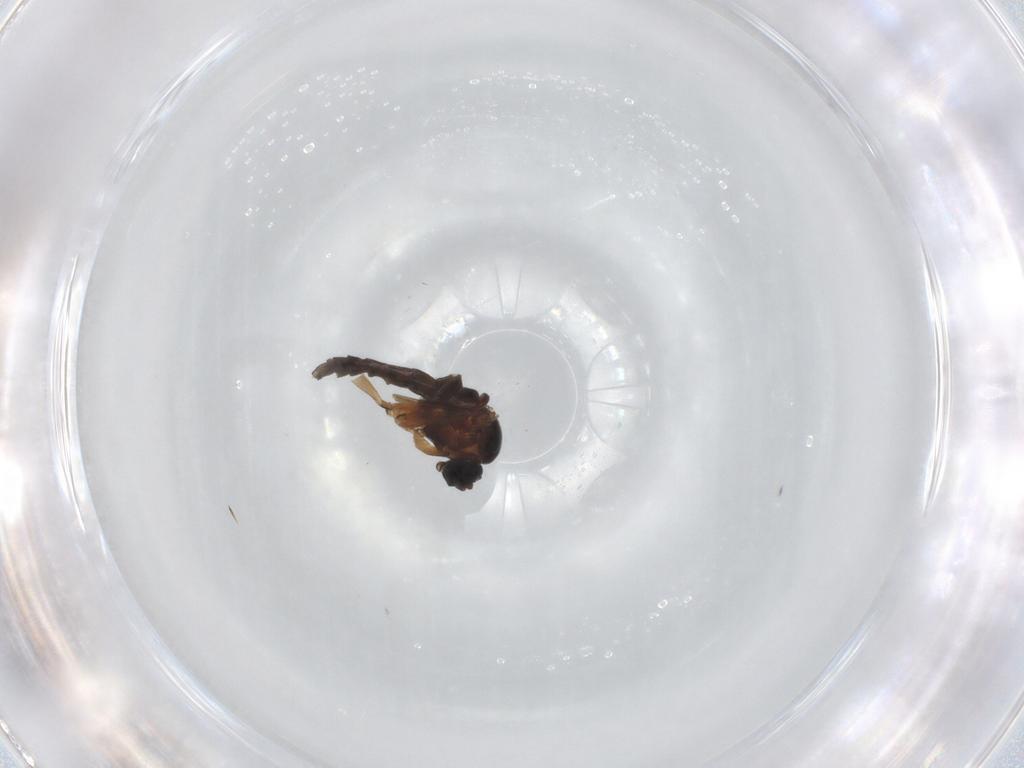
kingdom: Animalia
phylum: Arthropoda
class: Insecta
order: Diptera
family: Sciaridae
